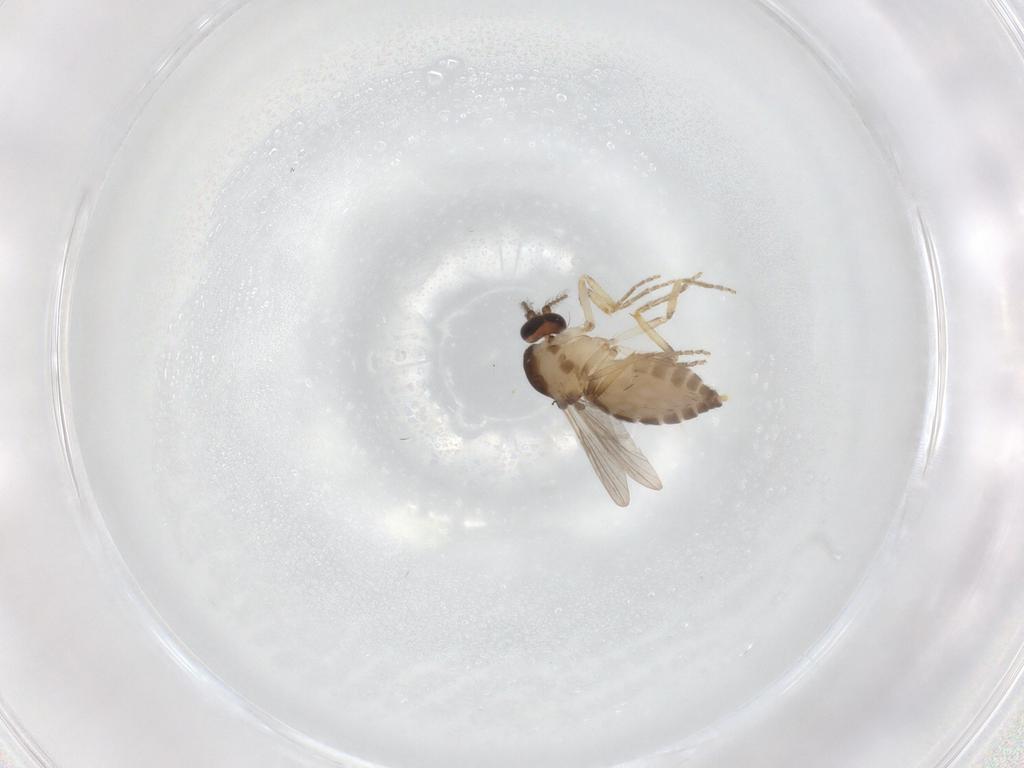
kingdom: Animalia
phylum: Arthropoda
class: Insecta
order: Diptera
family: Ceratopogonidae
